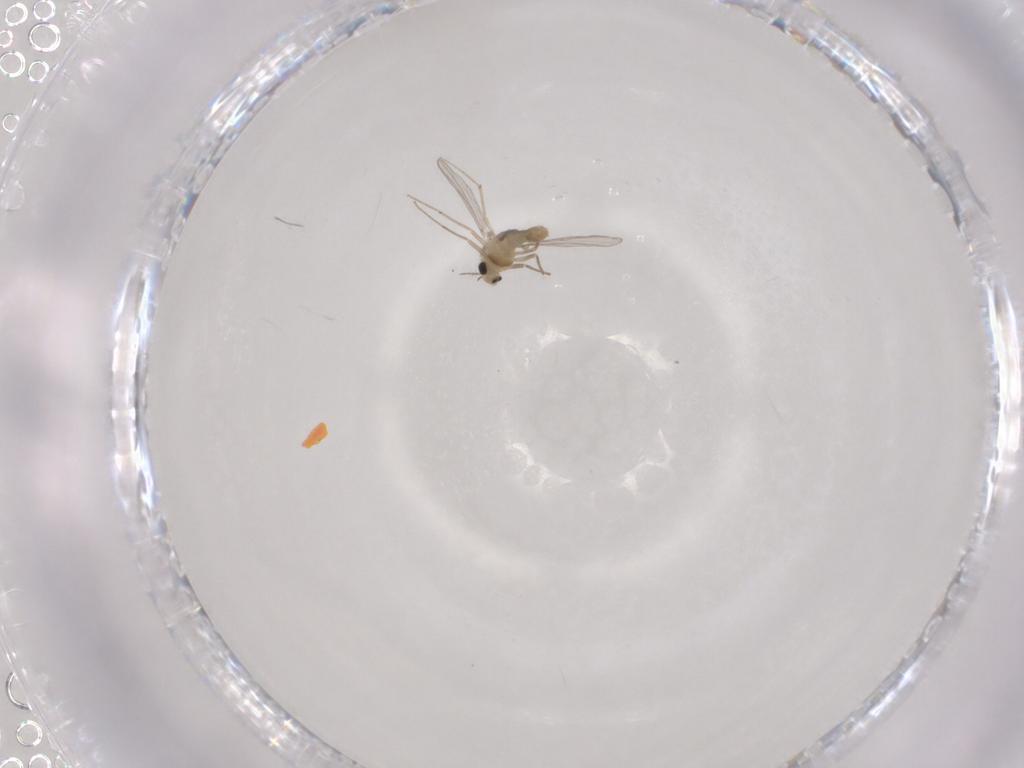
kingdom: Animalia
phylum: Arthropoda
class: Insecta
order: Diptera
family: Chironomidae
